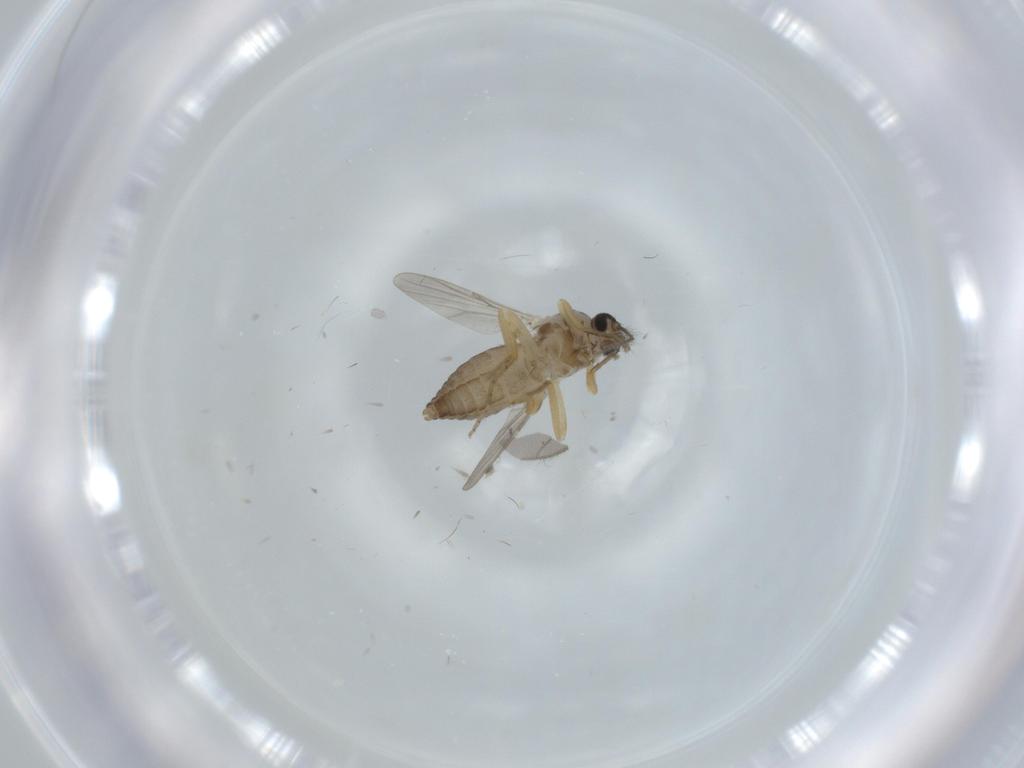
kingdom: Animalia
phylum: Arthropoda
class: Insecta
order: Diptera
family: Ceratopogonidae
